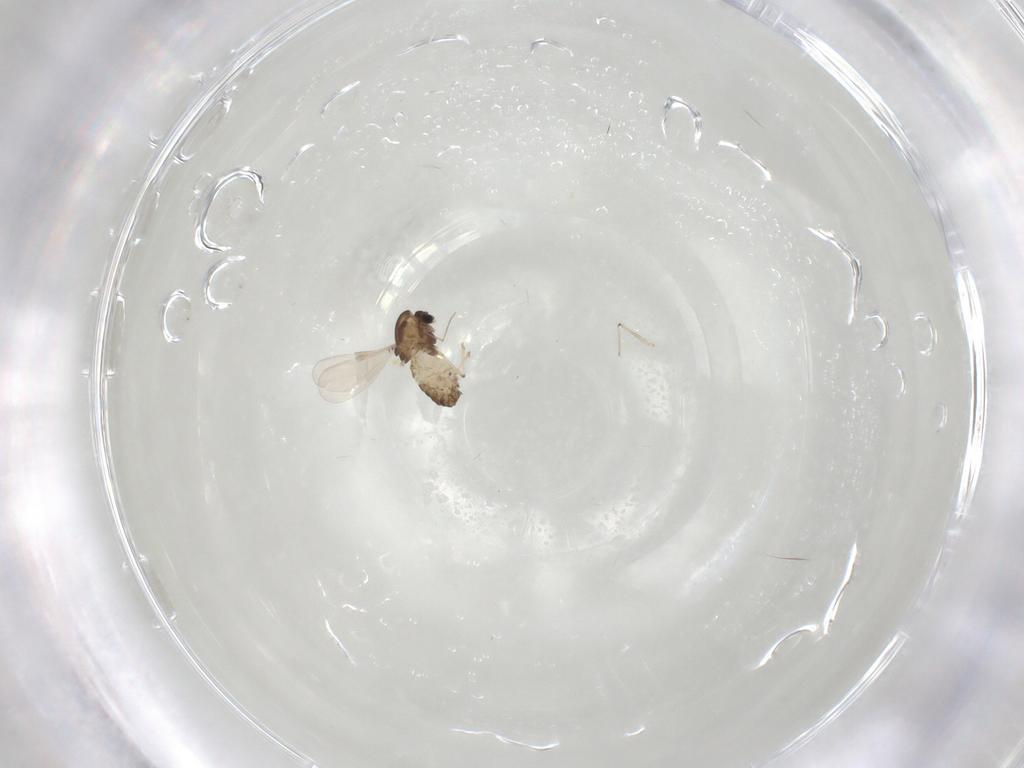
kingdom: Animalia
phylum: Arthropoda
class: Insecta
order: Diptera
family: Chironomidae
